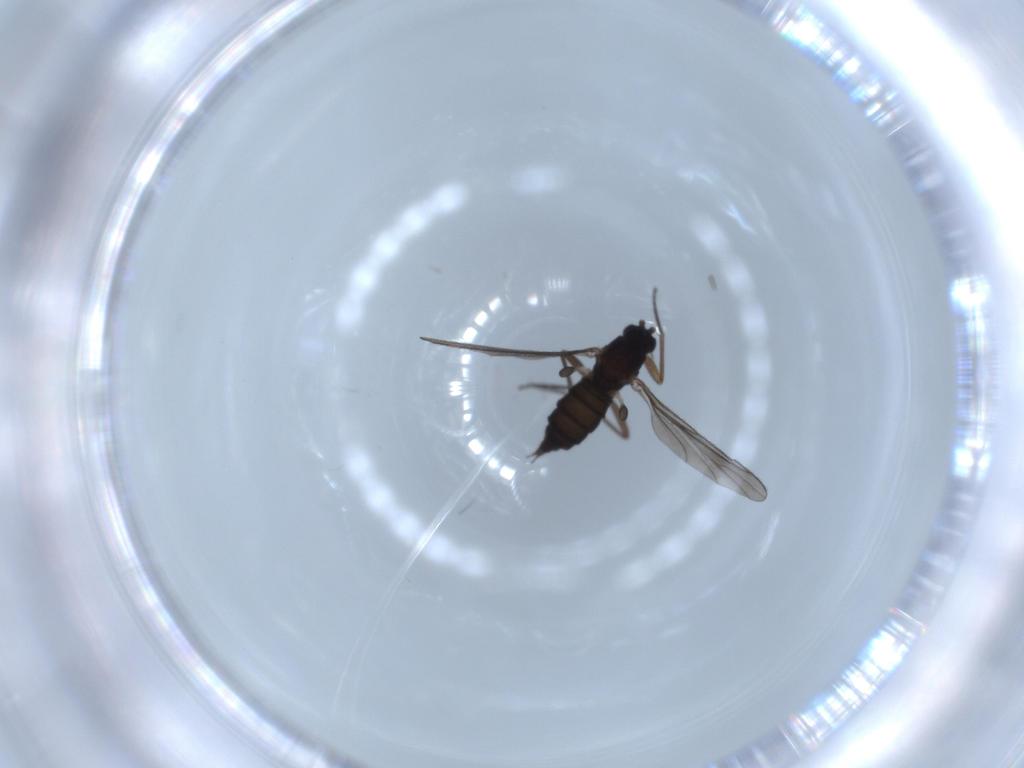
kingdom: Animalia
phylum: Arthropoda
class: Insecta
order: Diptera
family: Sciaridae
